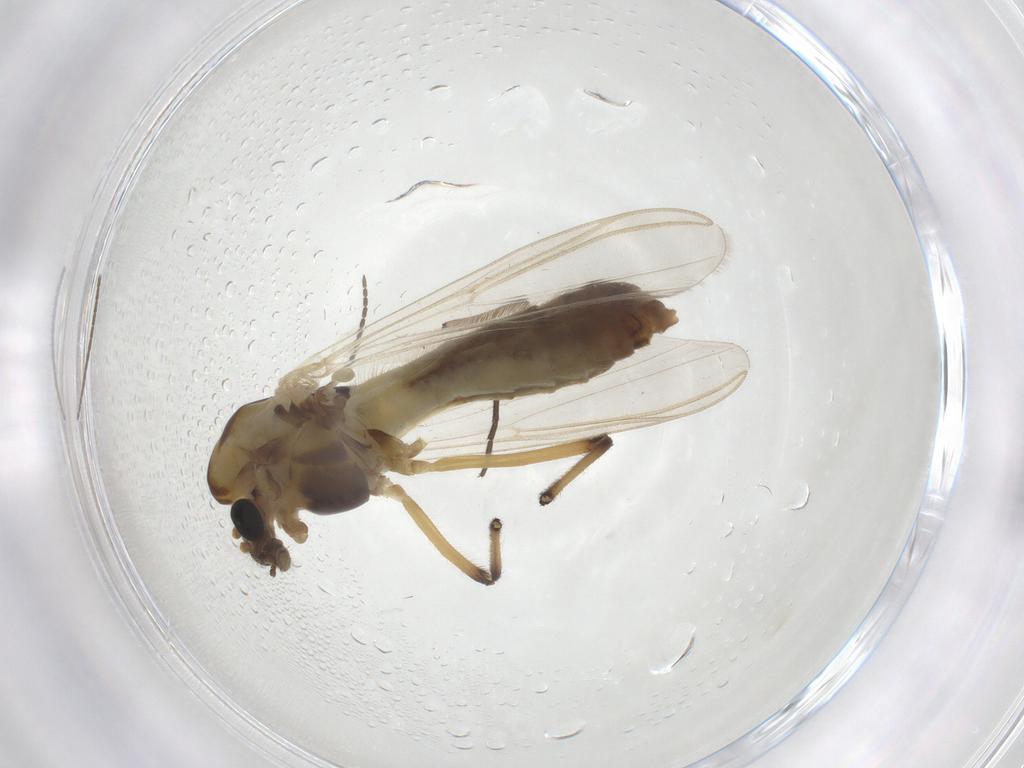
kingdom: Animalia
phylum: Arthropoda
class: Insecta
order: Diptera
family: Chironomidae
